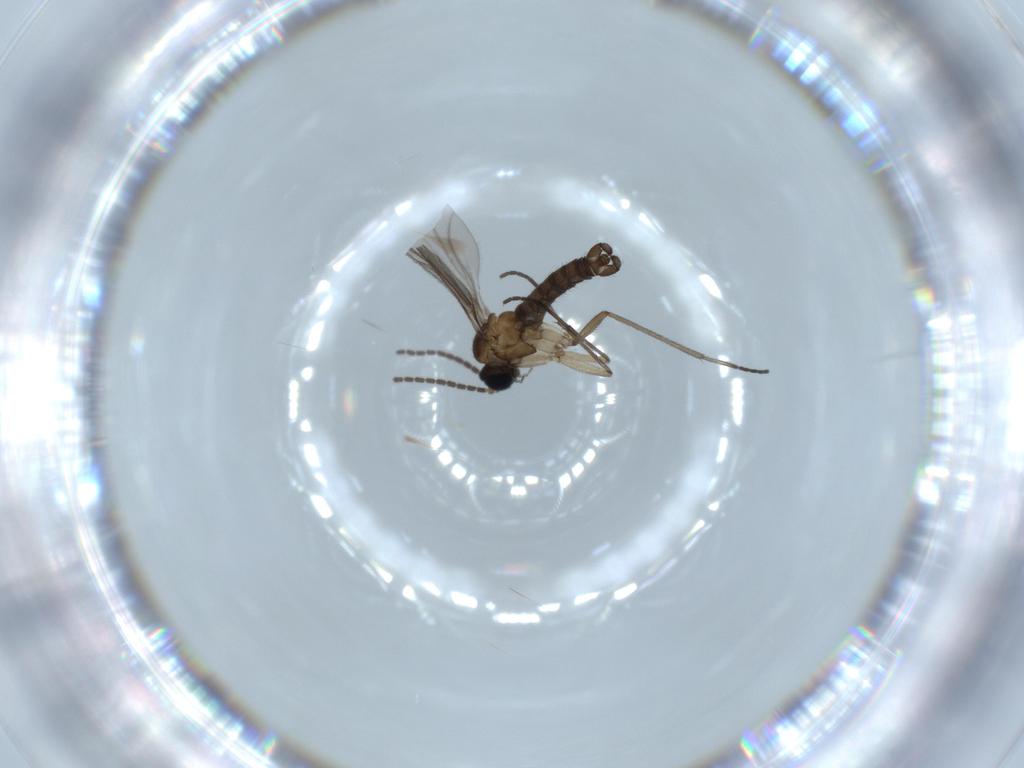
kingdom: Animalia
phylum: Arthropoda
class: Insecta
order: Diptera
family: Sciaridae
